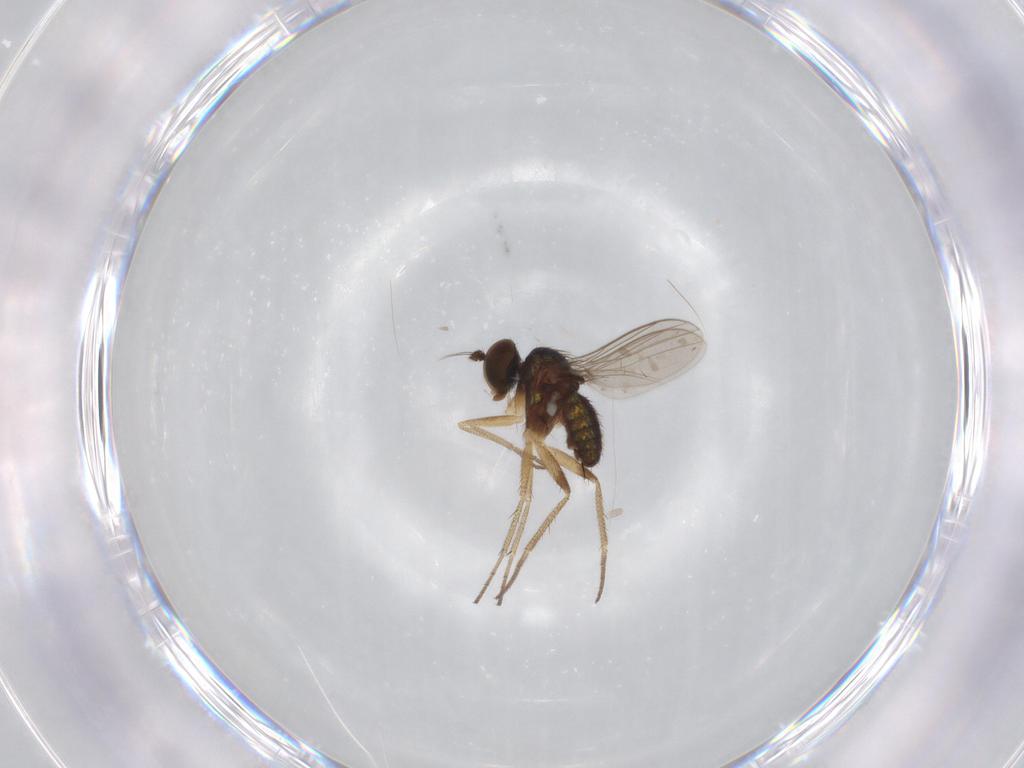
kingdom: Animalia
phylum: Arthropoda
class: Insecta
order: Diptera
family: Dolichopodidae
